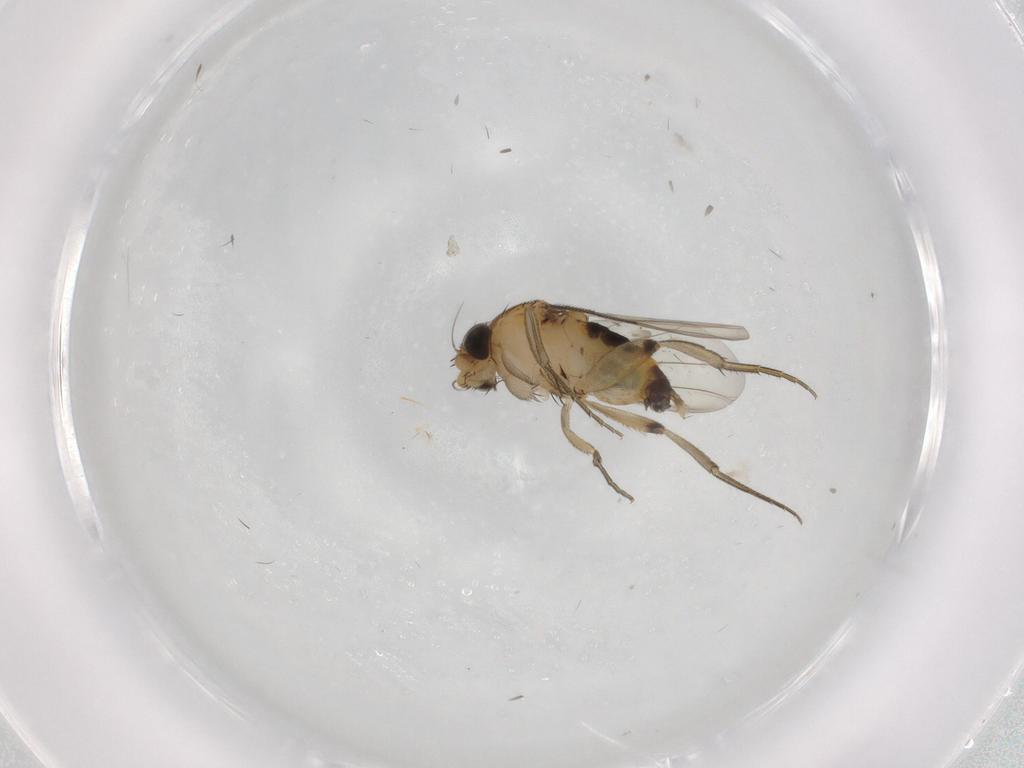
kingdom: Animalia
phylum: Arthropoda
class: Insecta
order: Diptera
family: Phoridae
